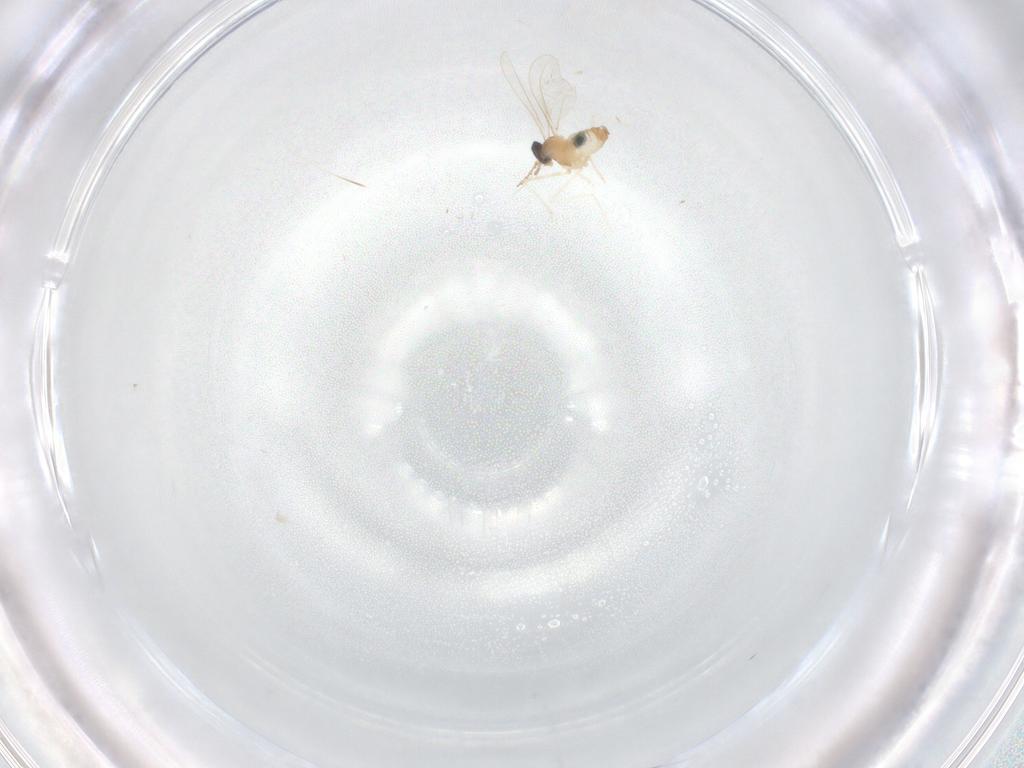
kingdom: Animalia
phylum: Arthropoda
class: Insecta
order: Diptera
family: Cecidomyiidae
